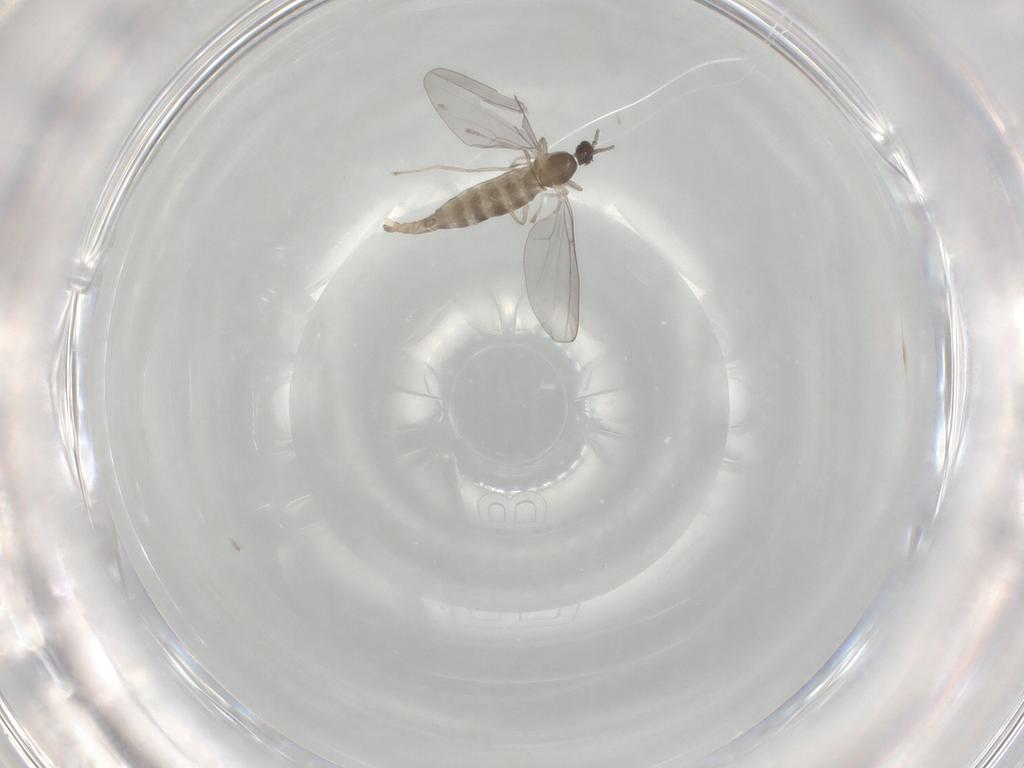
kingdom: Animalia
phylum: Arthropoda
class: Insecta
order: Diptera
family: Cecidomyiidae
